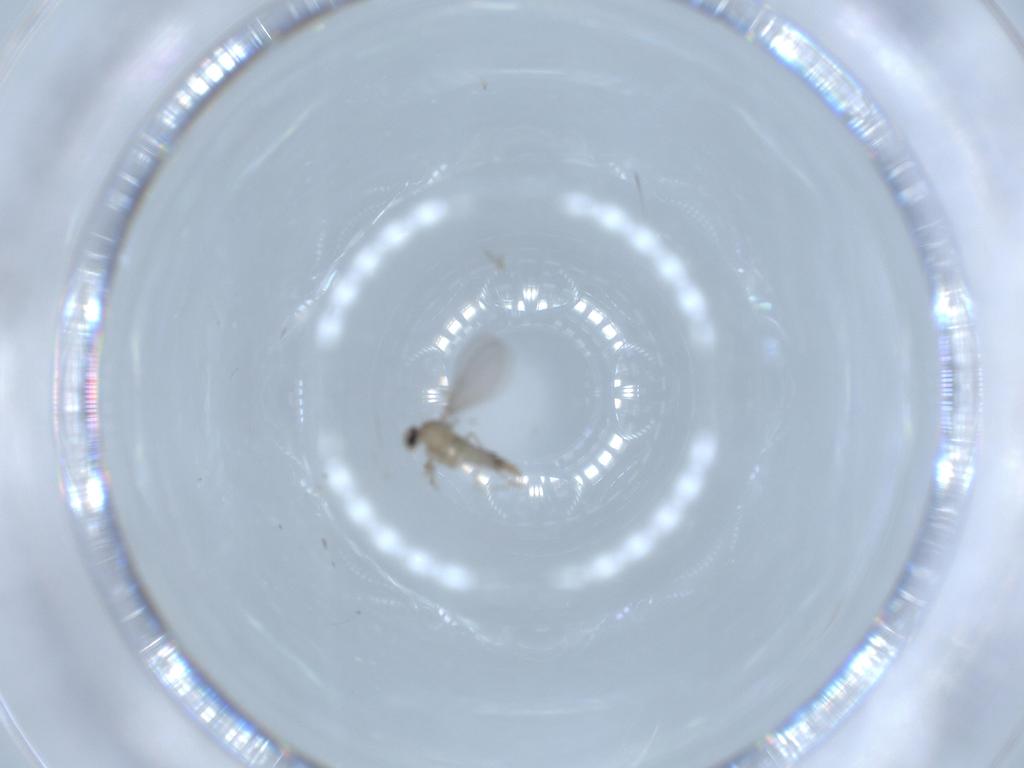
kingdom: Animalia
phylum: Arthropoda
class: Insecta
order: Diptera
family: Cecidomyiidae
